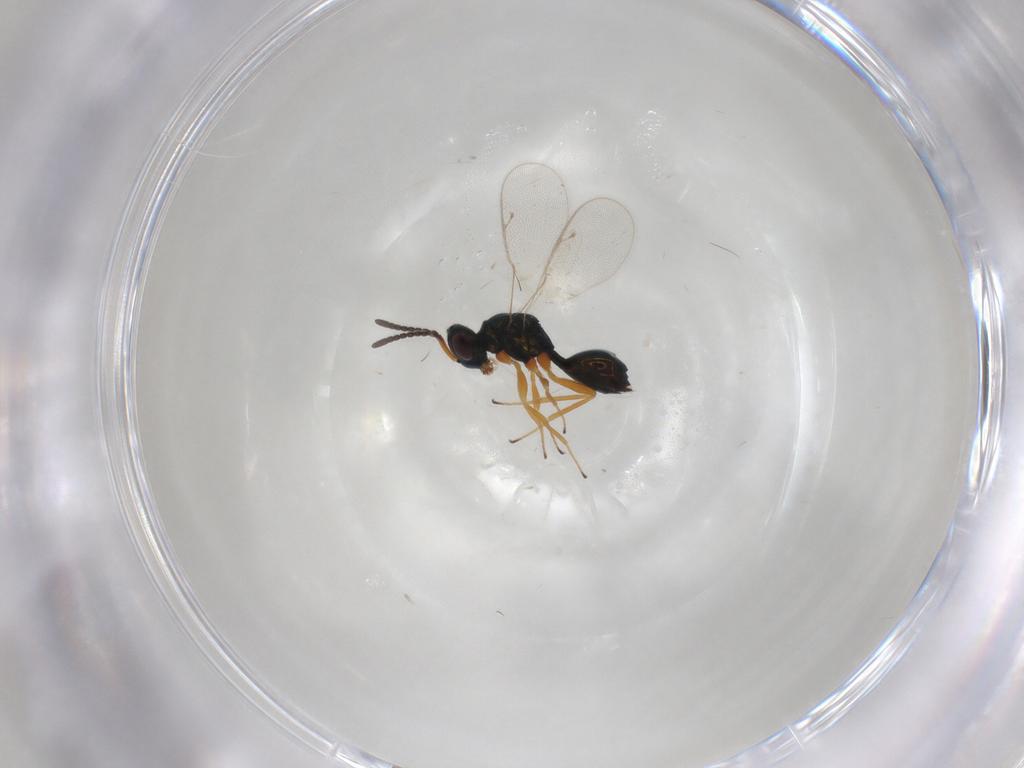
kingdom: Animalia
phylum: Arthropoda
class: Insecta
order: Hymenoptera
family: Pteromalidae
